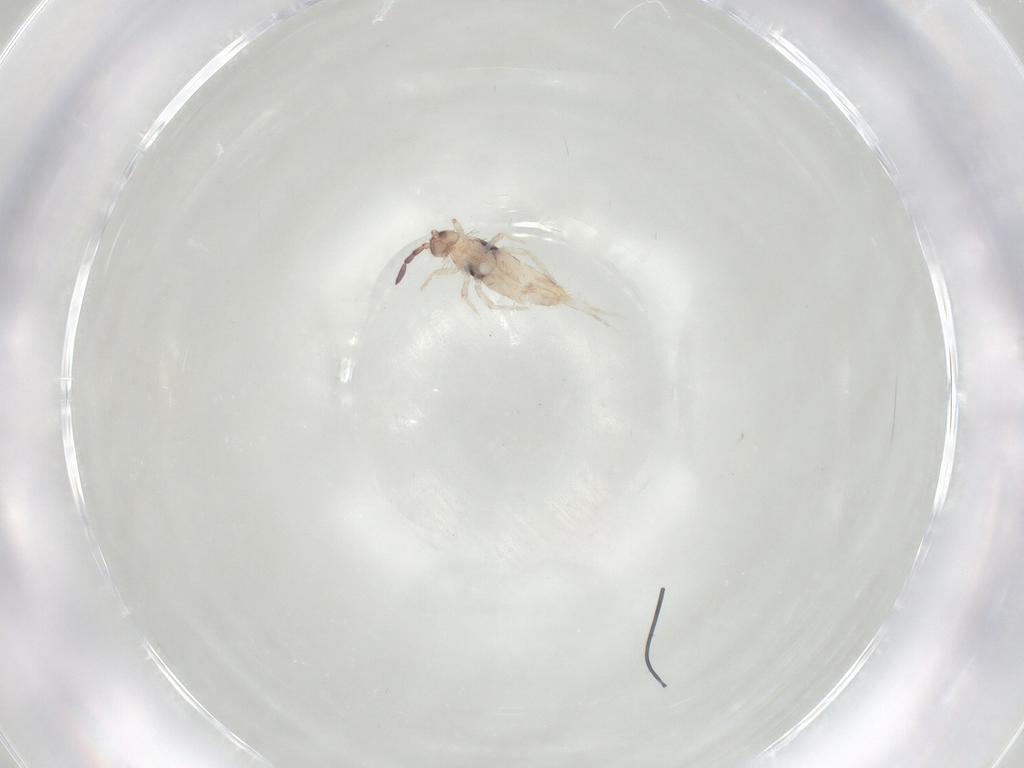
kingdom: Animalia
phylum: Arthropoda
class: Collembola
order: Entomobryomorpha
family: Entomobryidae
